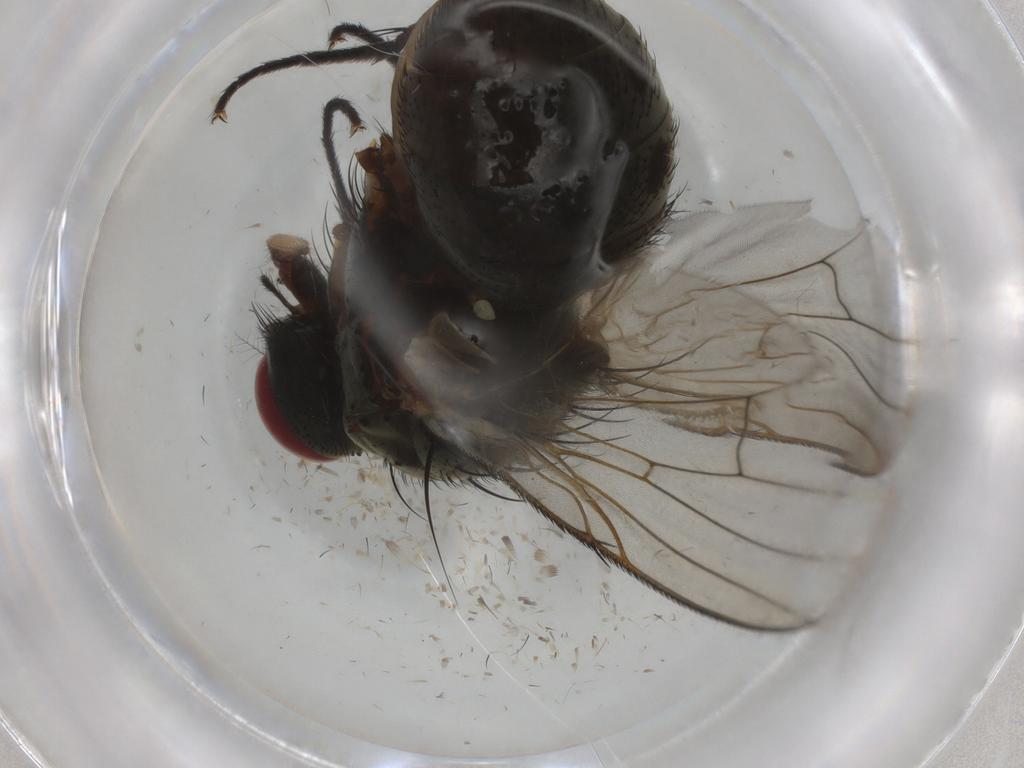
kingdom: Animalia
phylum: Arthropoda
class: Insecta
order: Diptera
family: Muscidae
